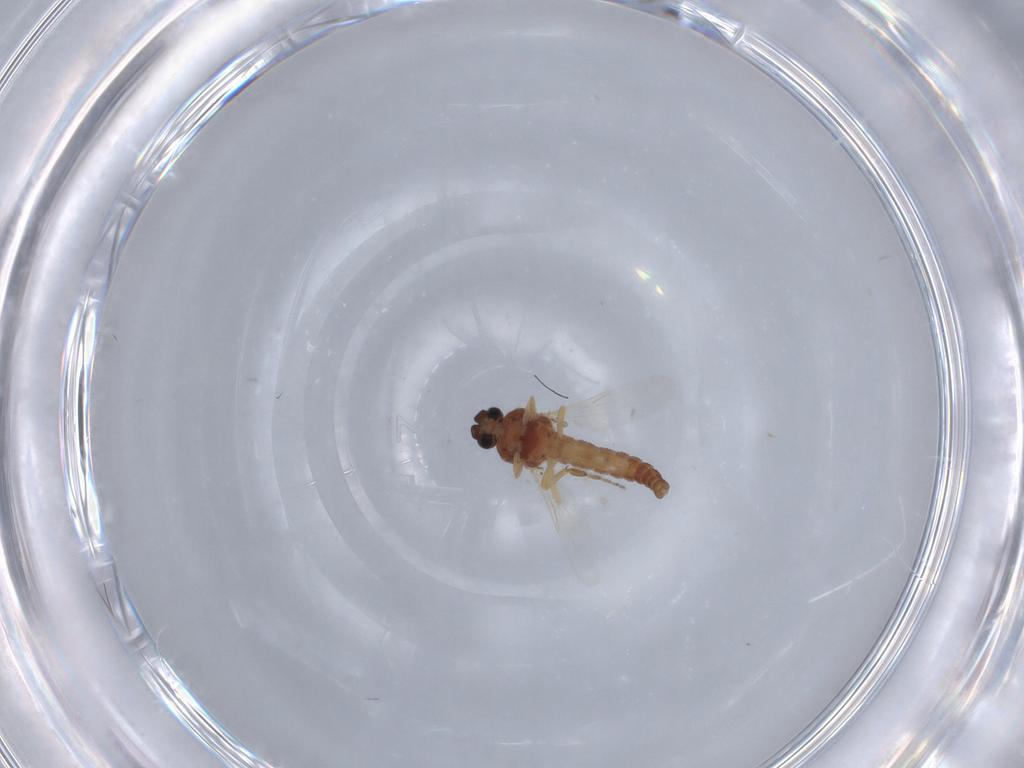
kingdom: Animalia
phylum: Arthropoda
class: Insecta
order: Diptera
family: Ceratopogonidae
